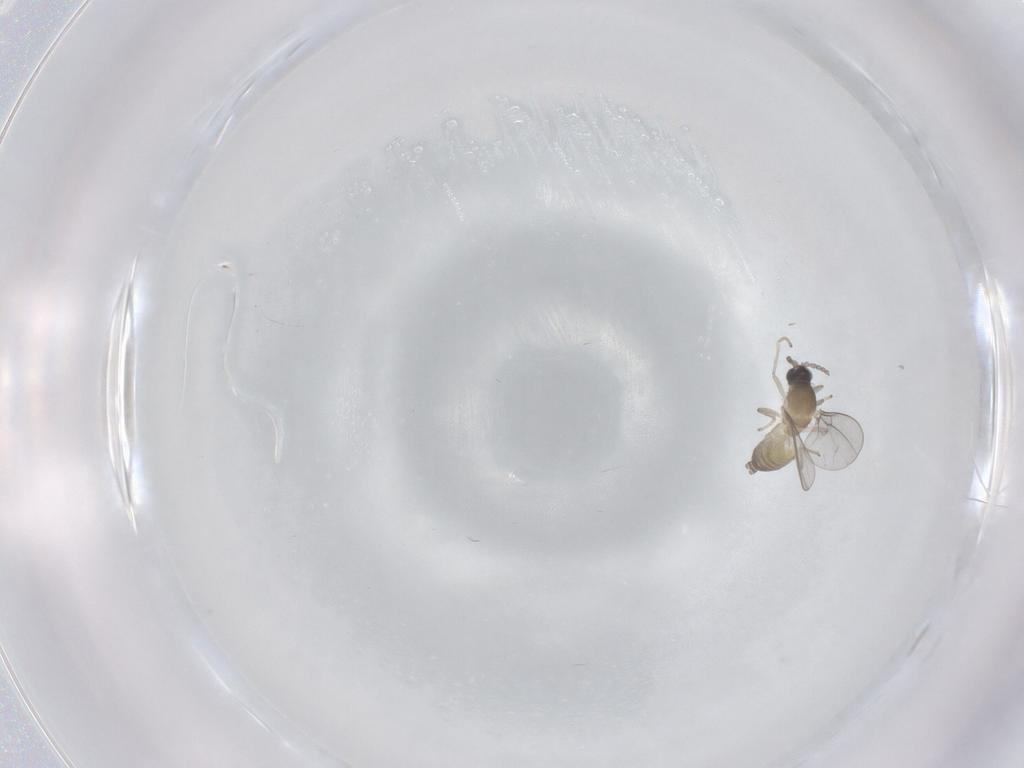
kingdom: Animalia
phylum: Arthropoda
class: Insecta
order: Diptera
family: Cecidomyiidae
